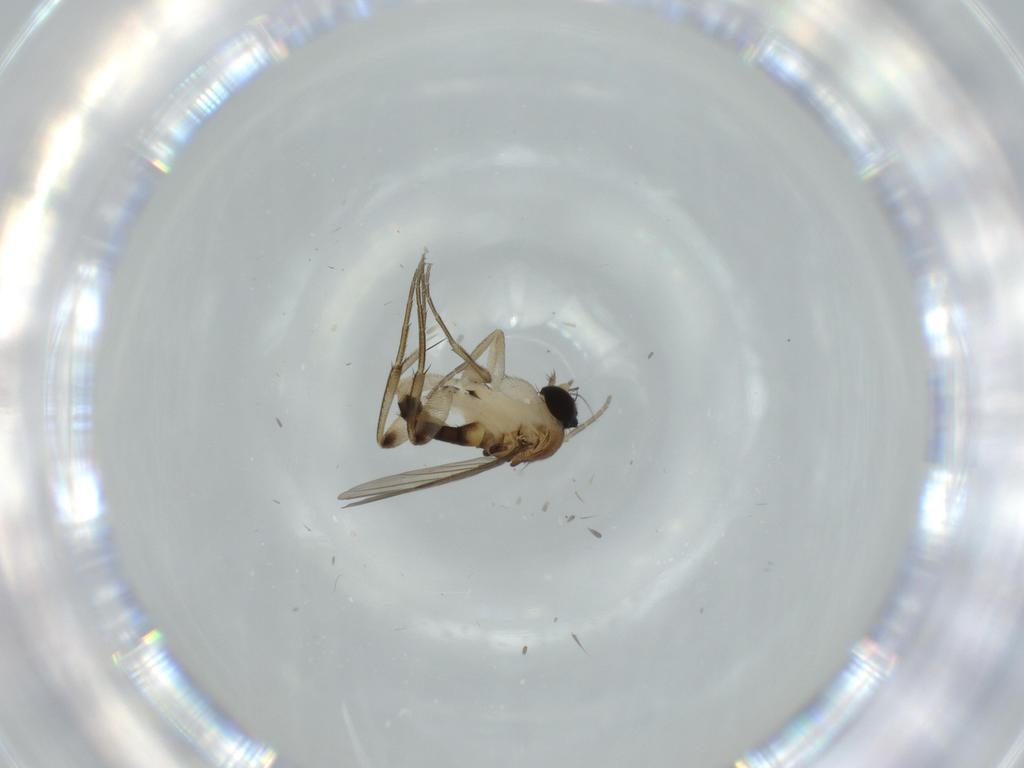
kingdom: Animalia
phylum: Arthropoda
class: Insecta
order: Diptera
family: Phoridae
